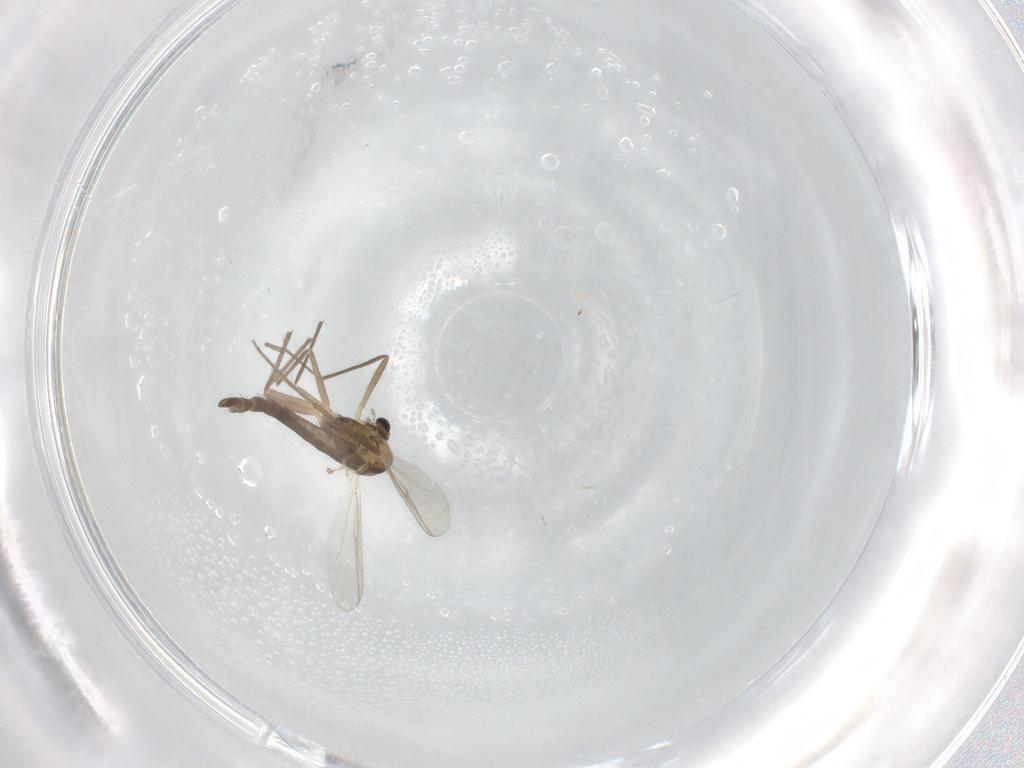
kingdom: Animalia
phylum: Arthropoda
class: Insecta
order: Diptera
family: Chironomidae
